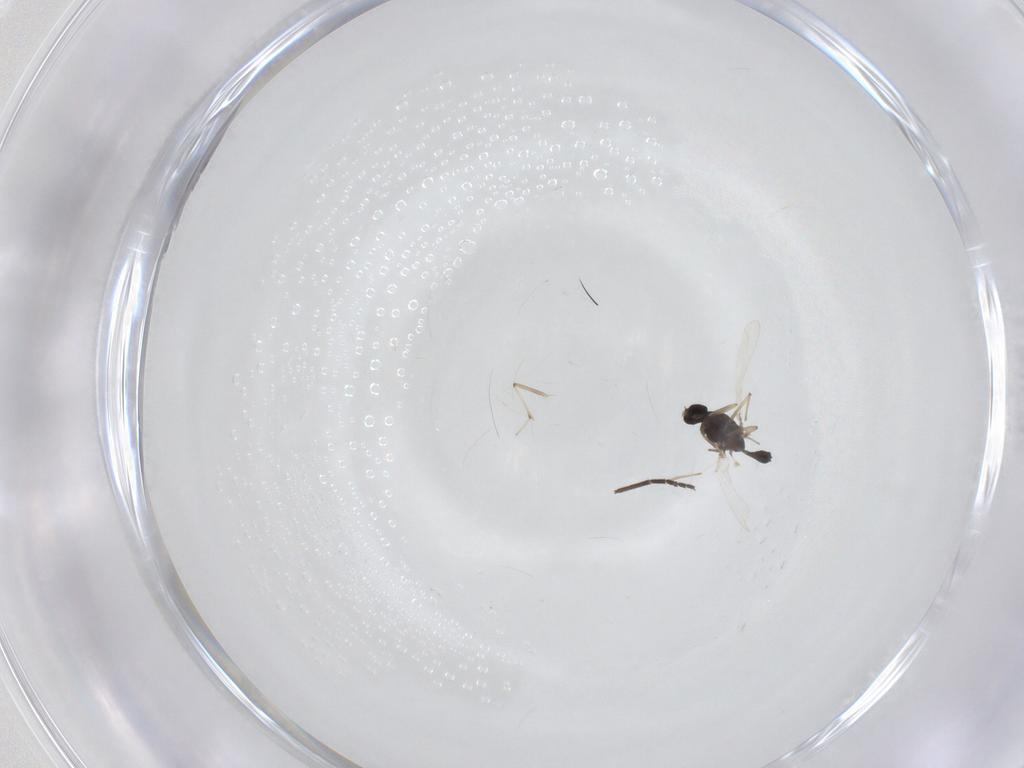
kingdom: Animalia
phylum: Arthropoda
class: Insecta
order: Diptera
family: Chironomidae
